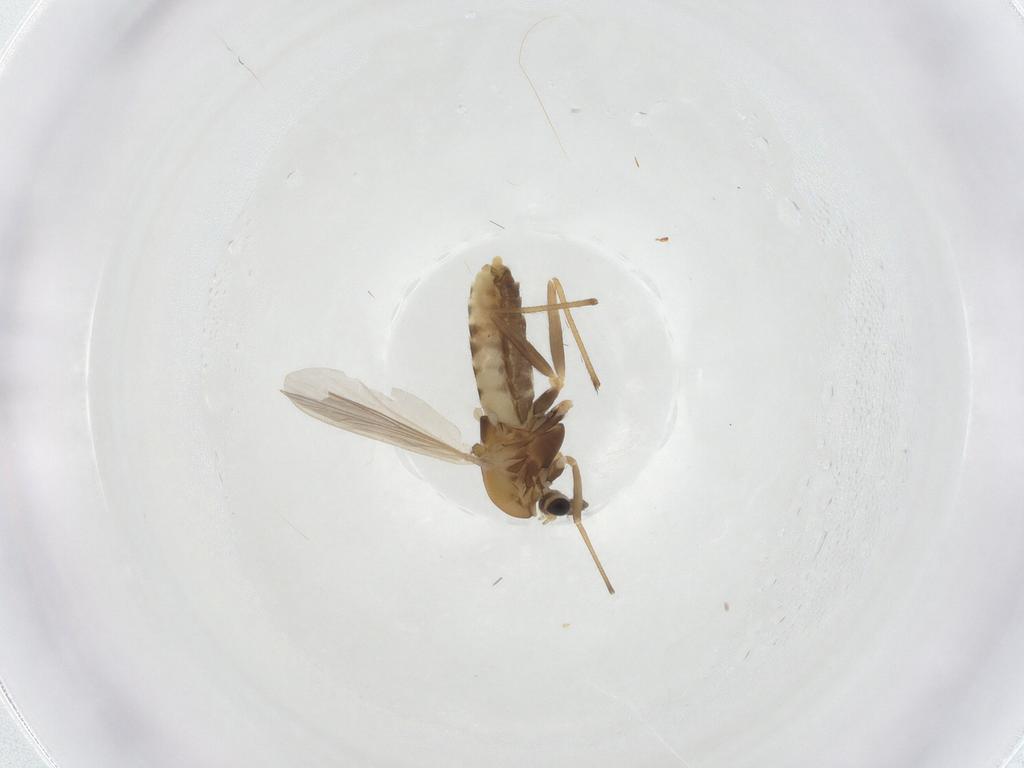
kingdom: Animalia
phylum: Arthropoda
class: Insecta
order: Diptera
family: Chironomidae
